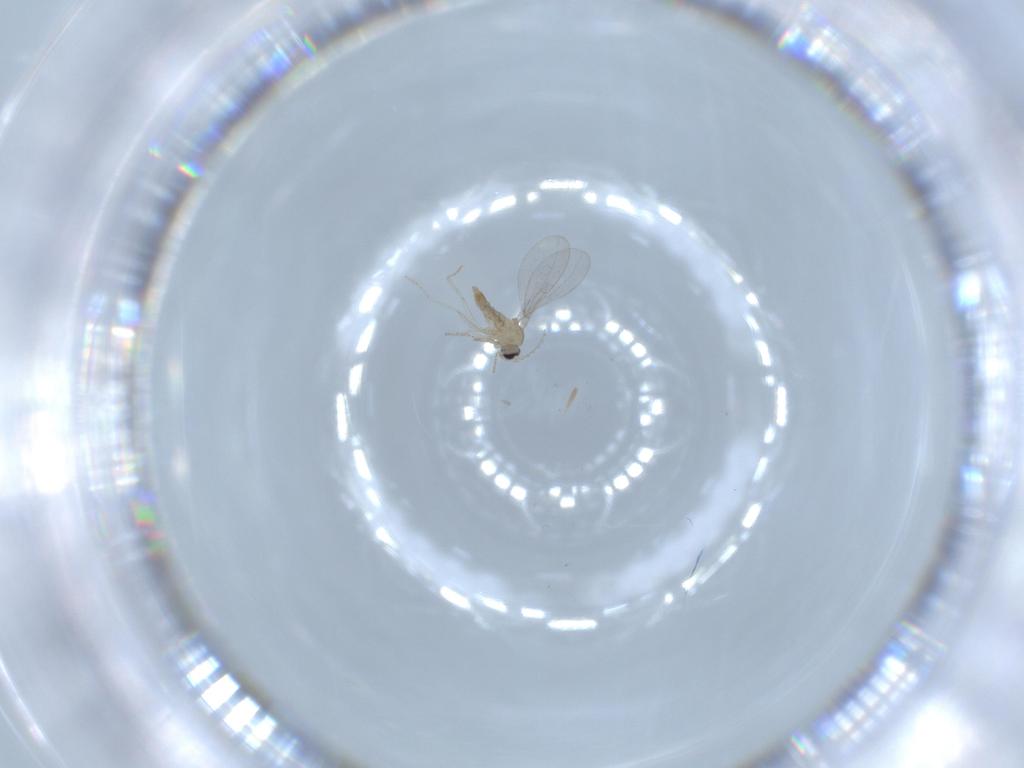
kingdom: Animalia
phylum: Arthropoda
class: Insecta
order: Diptera
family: Cecidomyiidae
